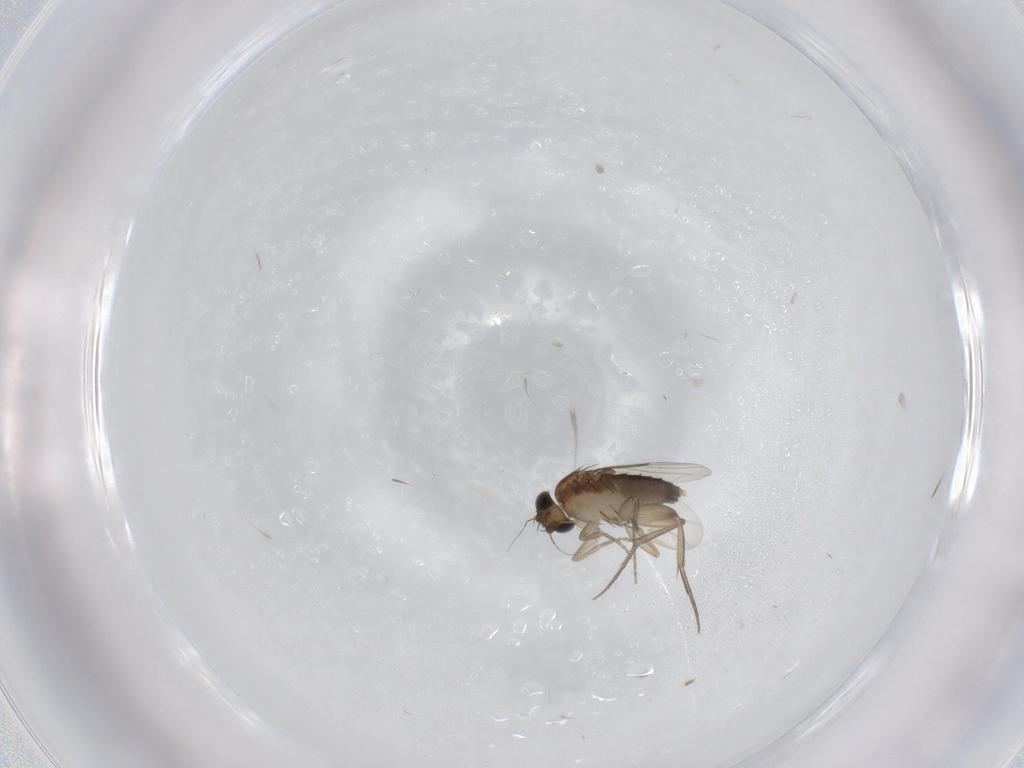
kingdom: Animalia
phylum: Arthropoda
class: Insecta
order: Diptera
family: Phoridae
